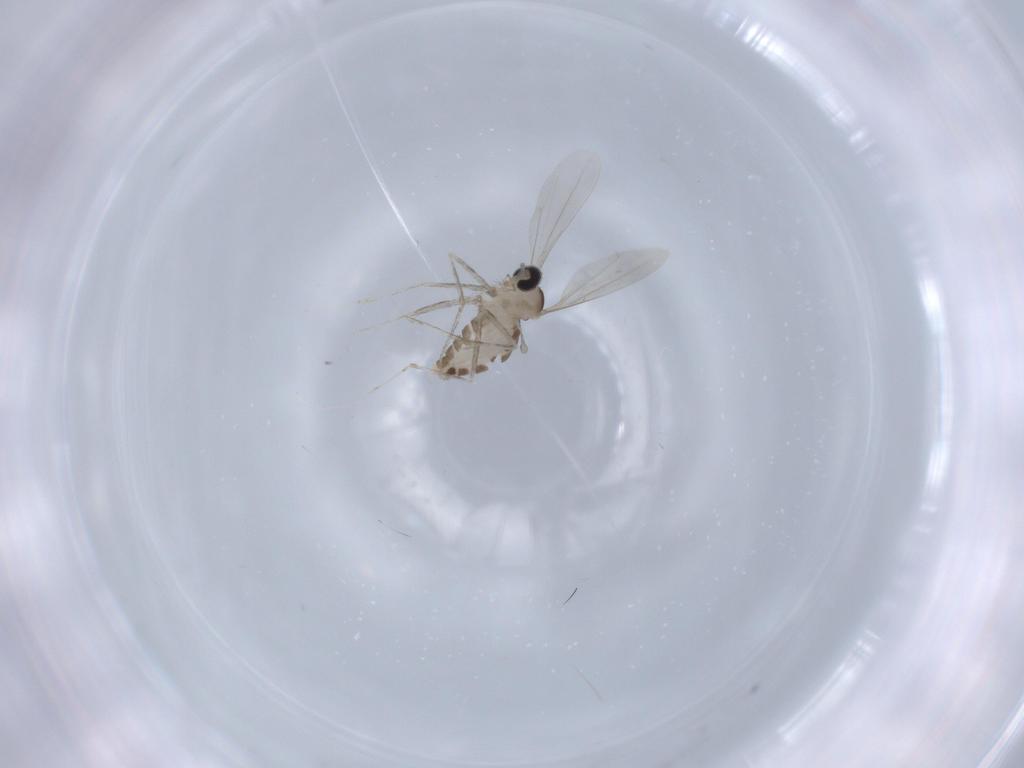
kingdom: Animalia
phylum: Arthropoda
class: Insecta
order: Diptera
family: Cecidomyiidae
